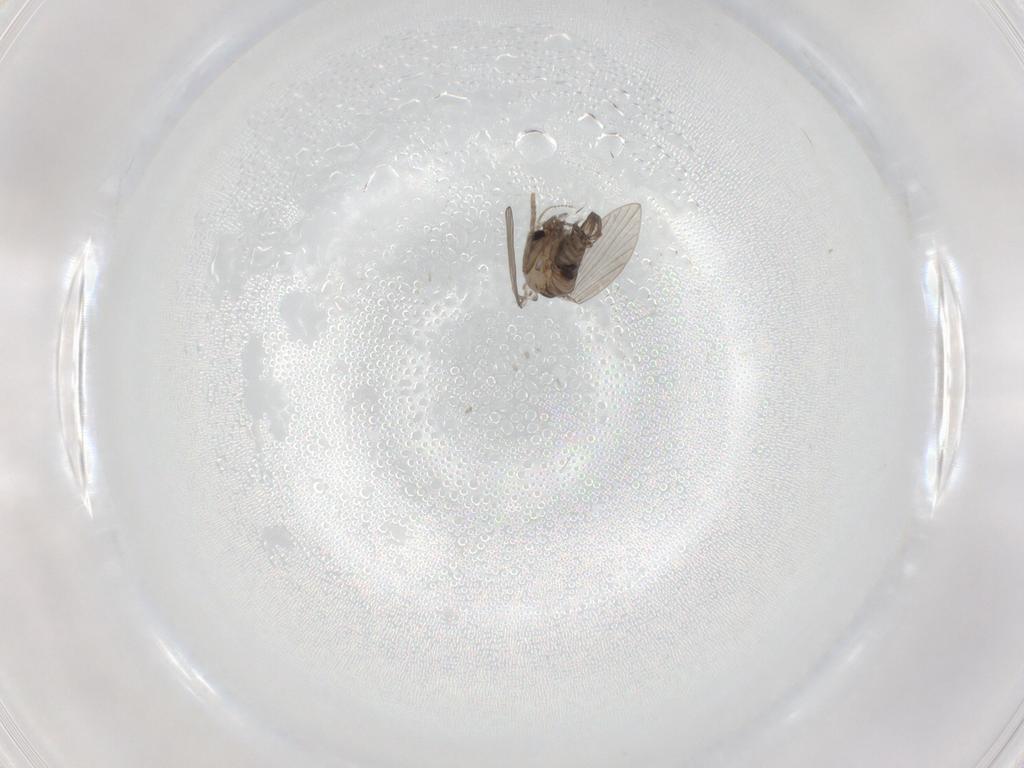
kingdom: Animalia
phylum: Arthropoda
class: Insecta
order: Diptera
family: Psychodidae
